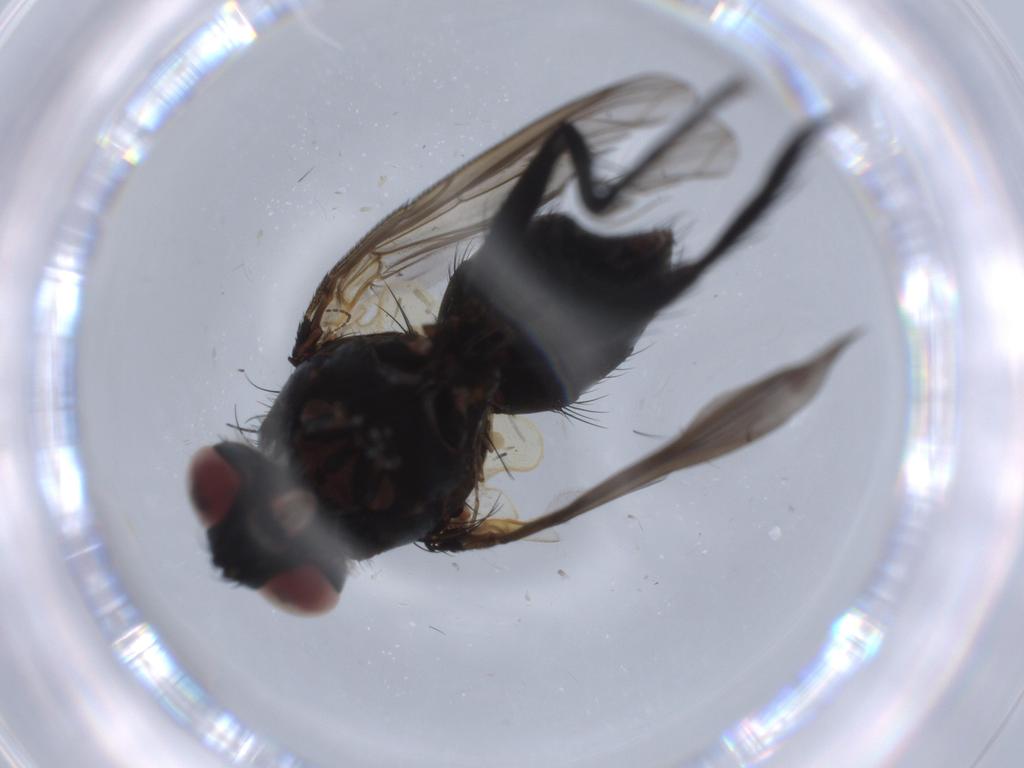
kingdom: Animalia
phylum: Arthropoda
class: Insecta
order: Diptera
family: Tachinidae
